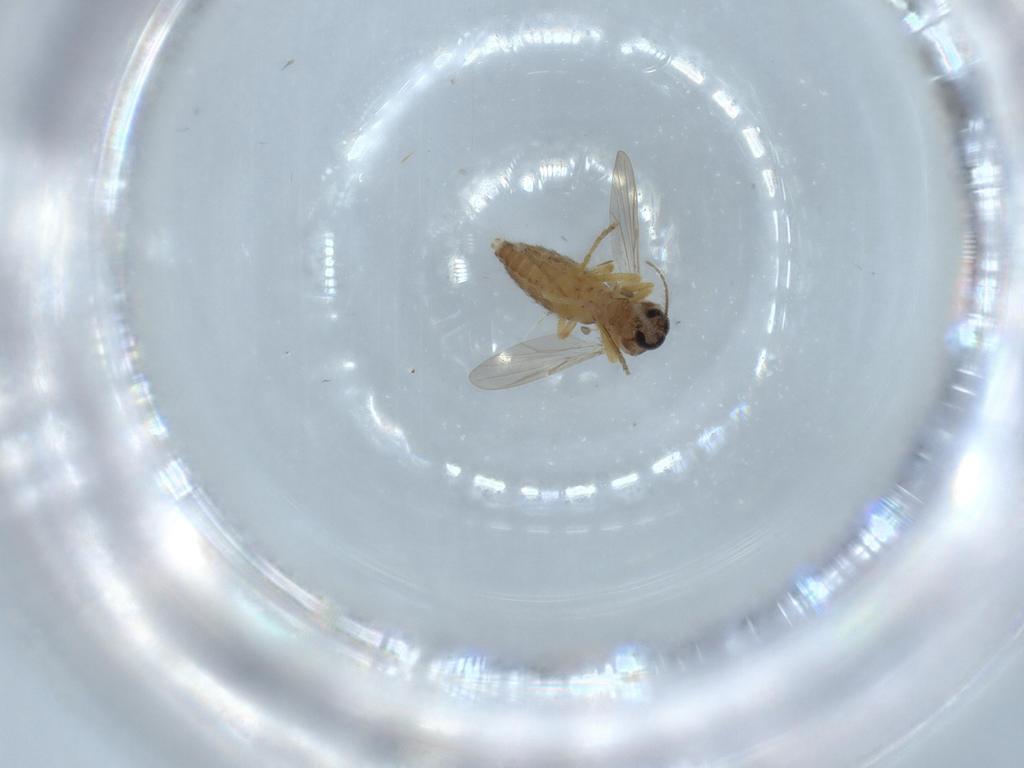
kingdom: Animalia
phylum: Arthropoda
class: Insecta
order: Diptera
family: Ceratopogonidae
